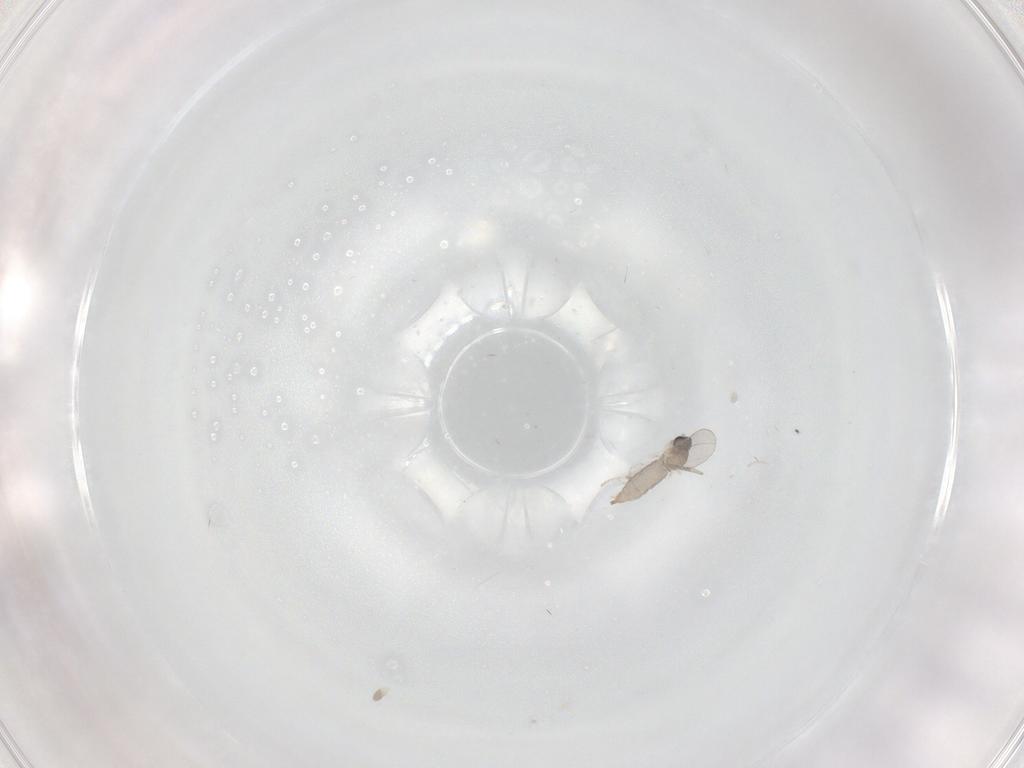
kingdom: Animalia
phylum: Arthropoda
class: Insecta
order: Diptera
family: Cecidomyiidae
